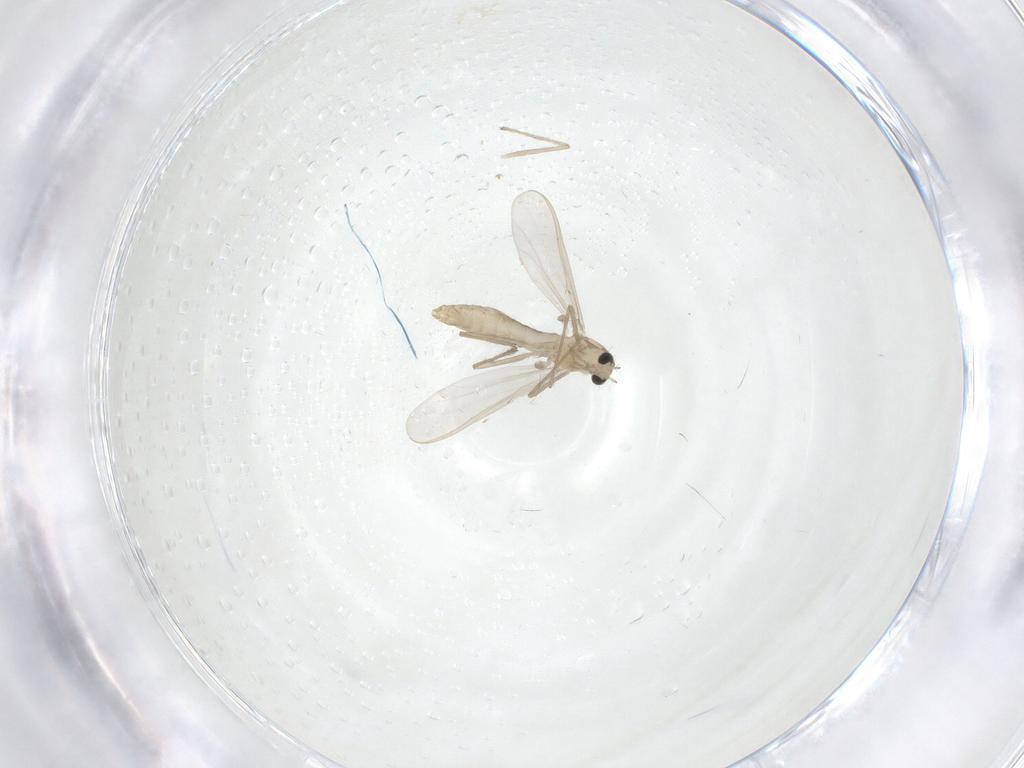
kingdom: Animalia
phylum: Arthropoda
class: Insecta
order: Diptera
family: Chironomidae
